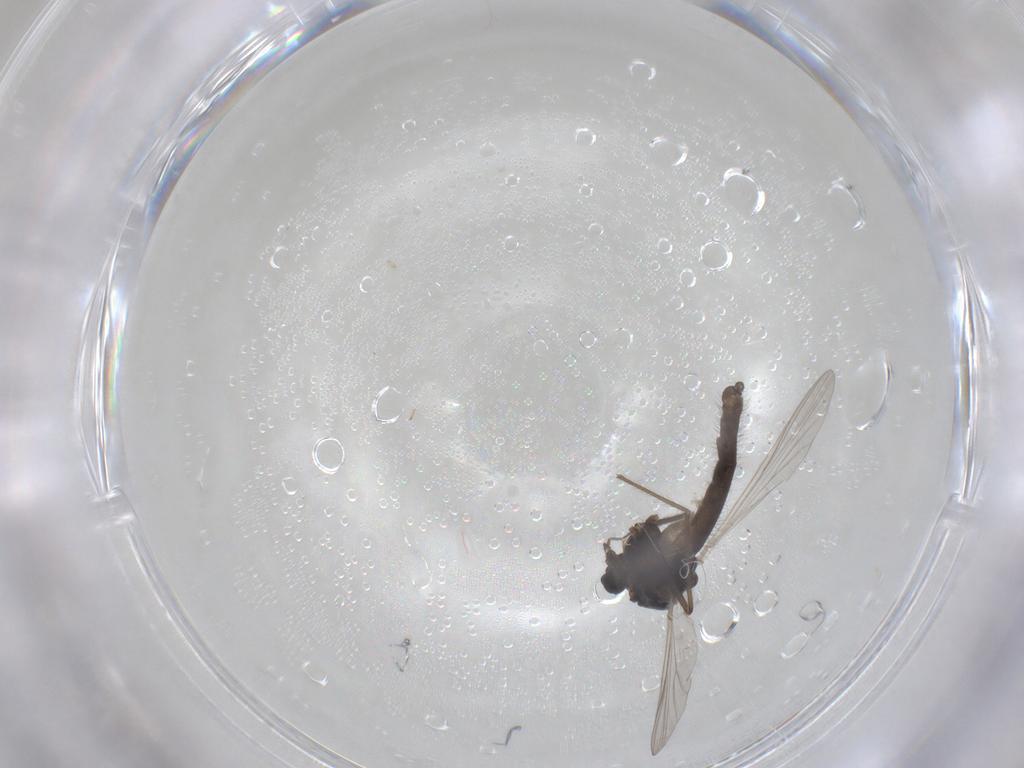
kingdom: Animalia
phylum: Arthropoda
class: Insecta
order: Diptera
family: Chironomidae
